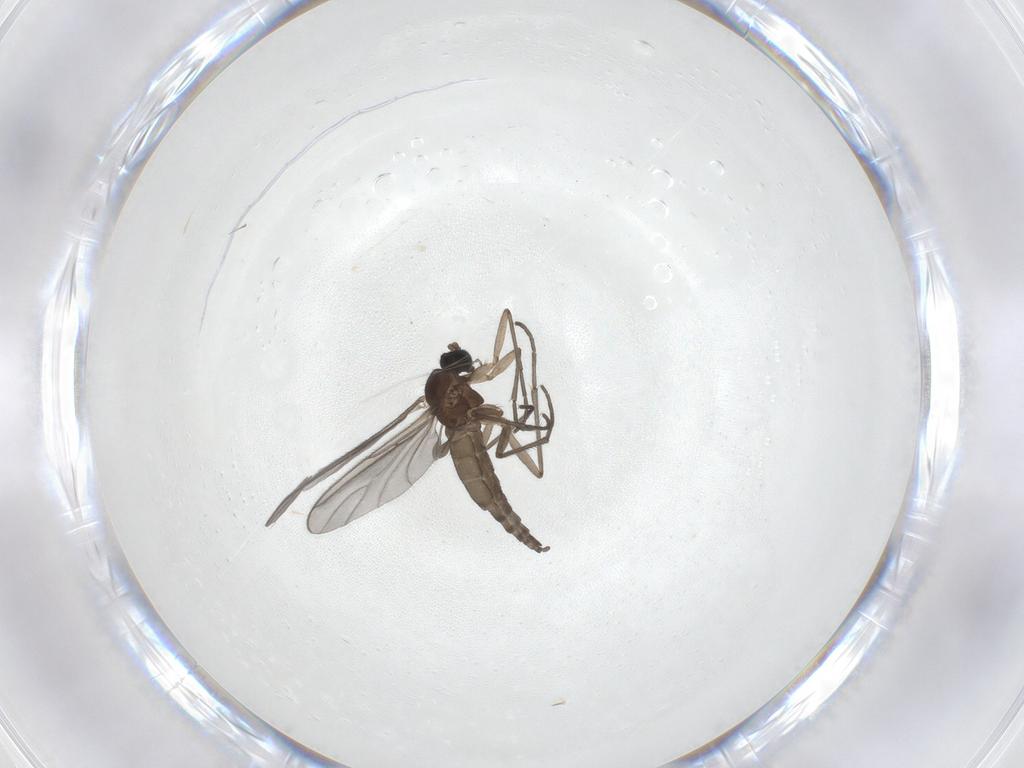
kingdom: Animalia
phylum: Arthropoda
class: Insecta
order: Diptera
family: Sciaridae
